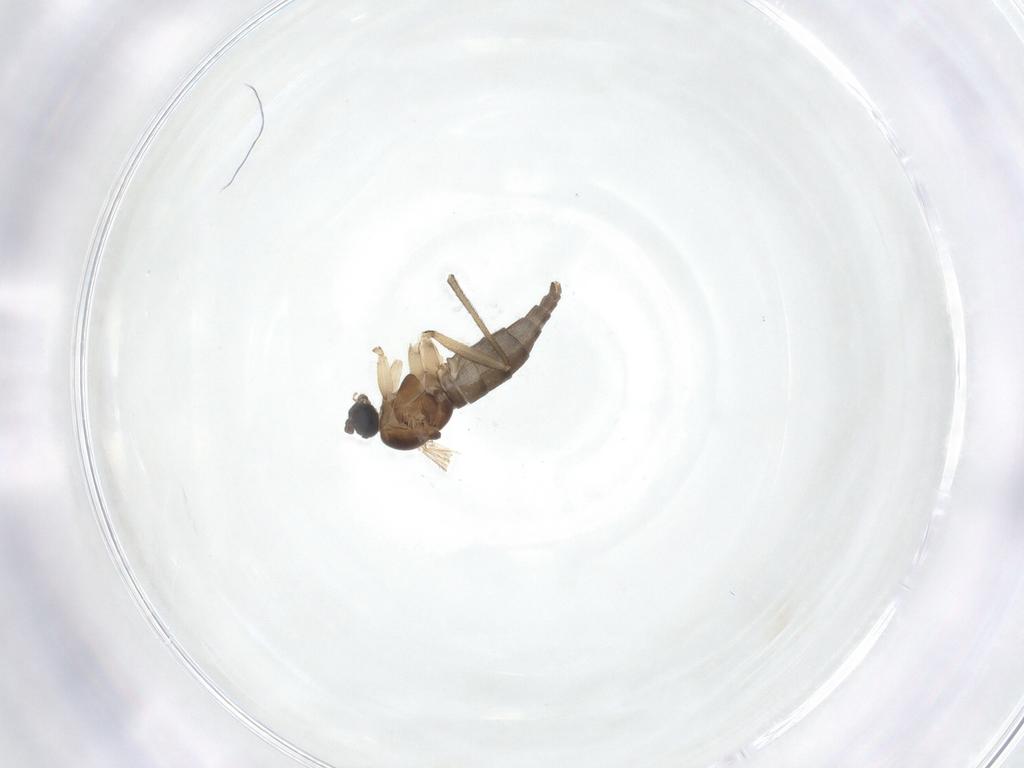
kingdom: Animalia
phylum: Arthropoda
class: Insecta
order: Diptera
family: Sciaridae
